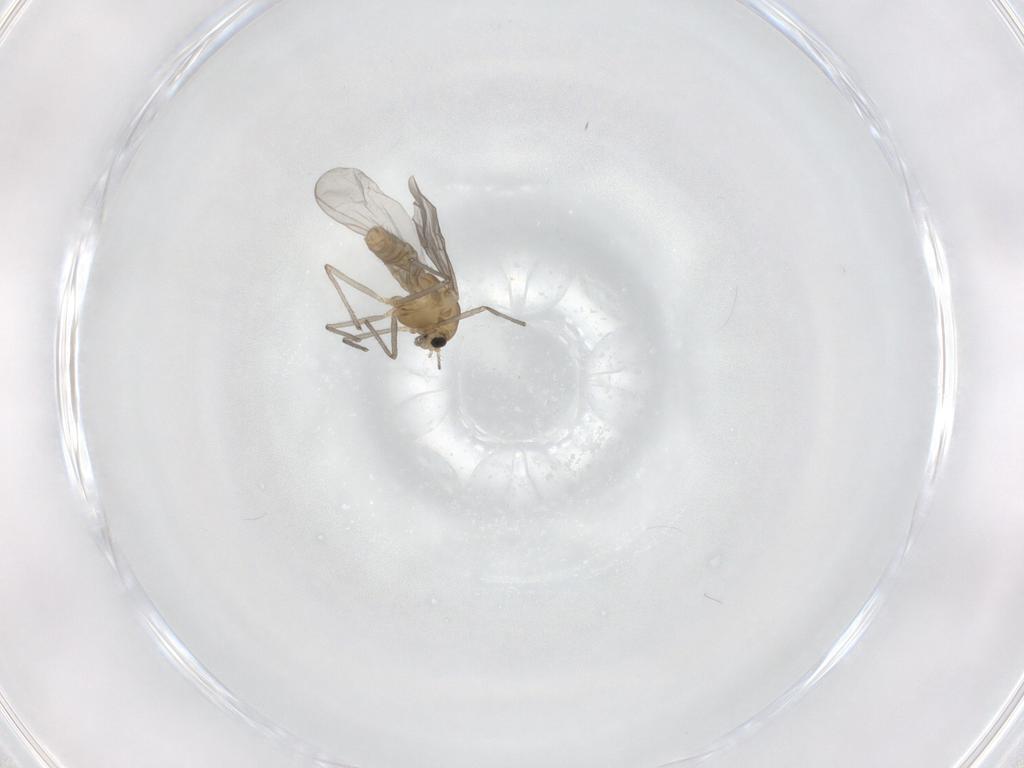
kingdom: Animalia
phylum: Arthropoda
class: Insecta
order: Diptera
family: Chironomidae
